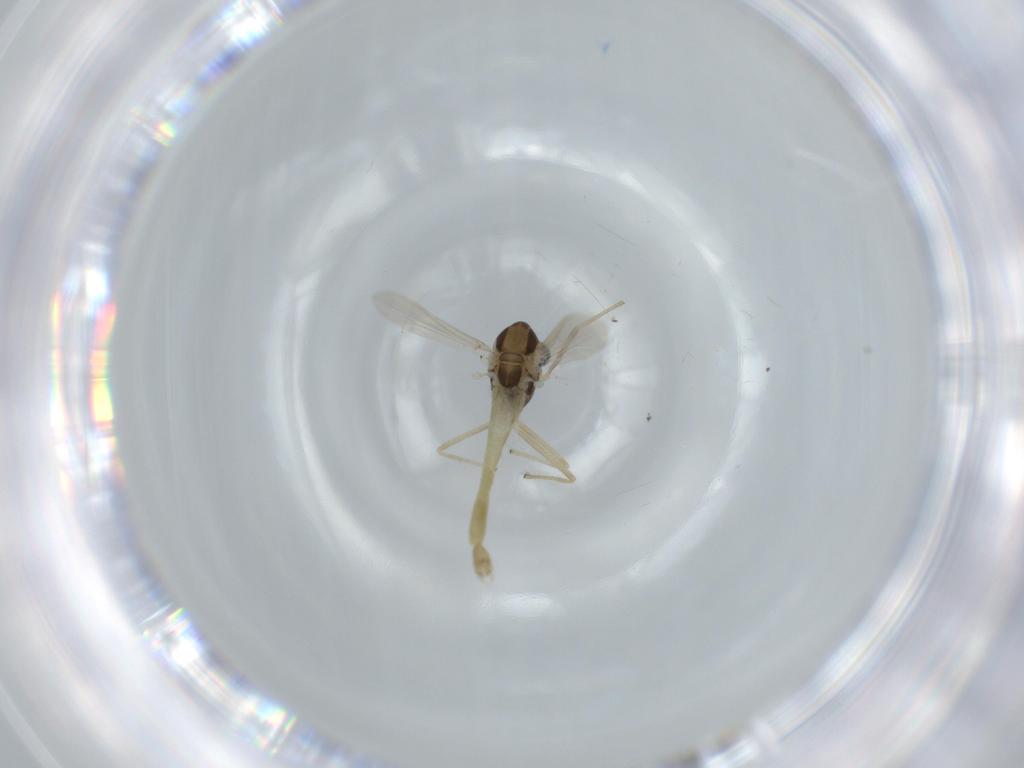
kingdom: Animalia
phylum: Arthropoda
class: Insecta
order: Diptera
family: Chironomidae
